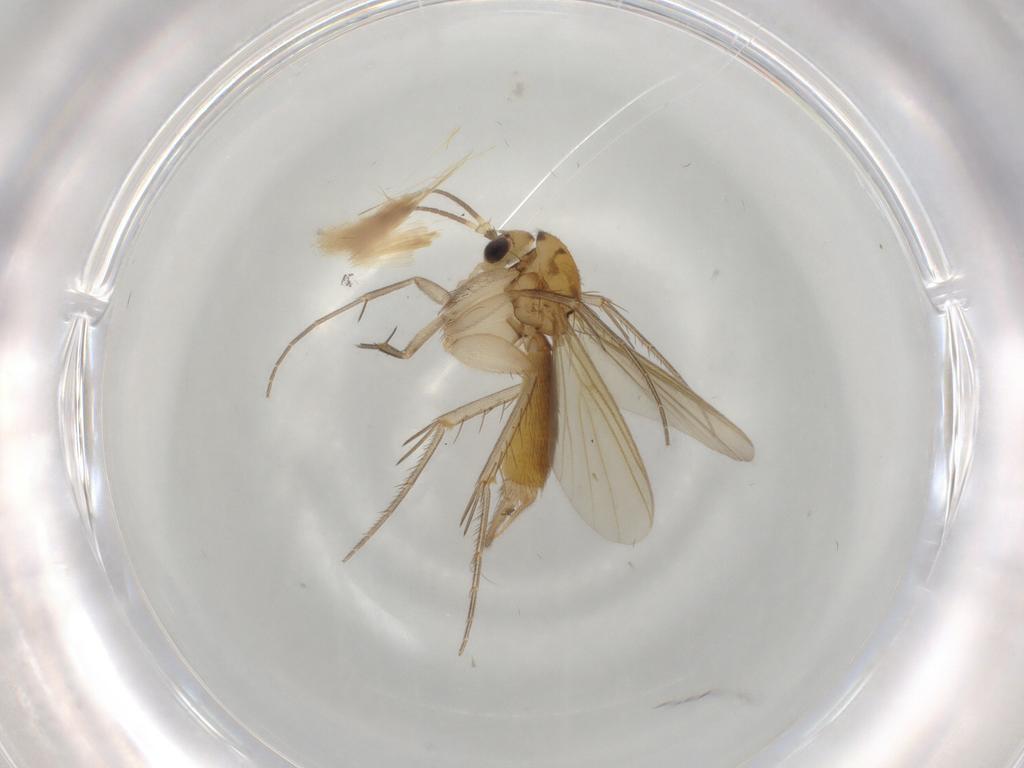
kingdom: Animalia
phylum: Arthropoda
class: Insecta
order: Diptera
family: Mycetophilidae
